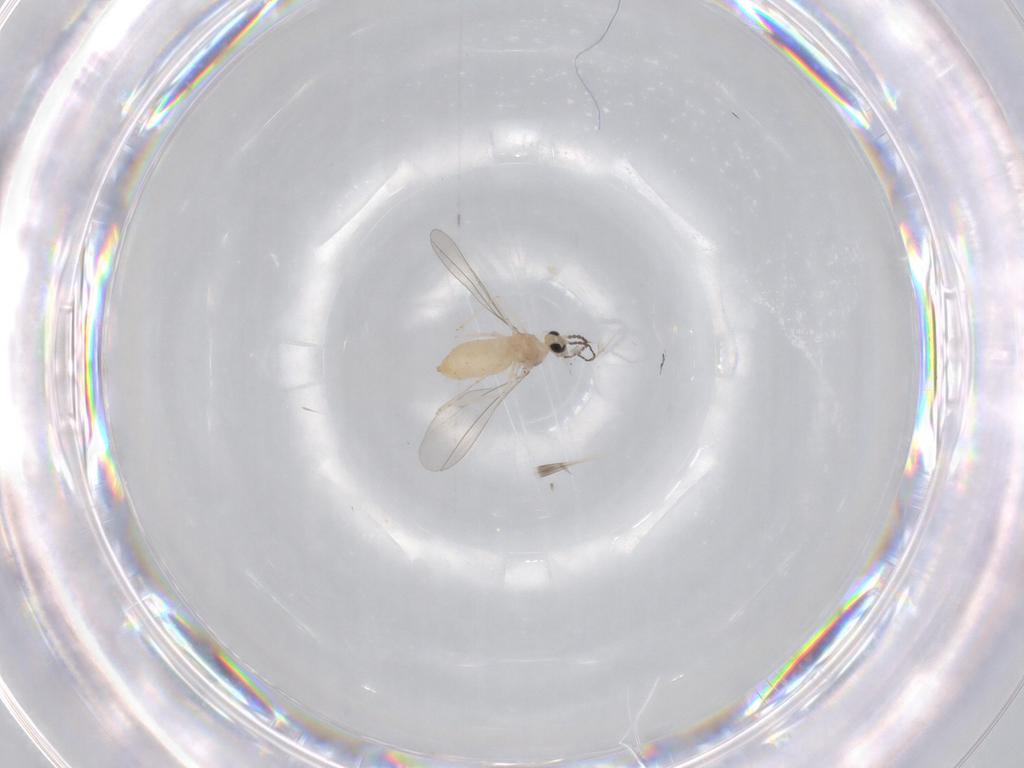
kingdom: Animalia
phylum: Arthropoda
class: Insecta
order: Diptera
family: Cecidomyiidae
